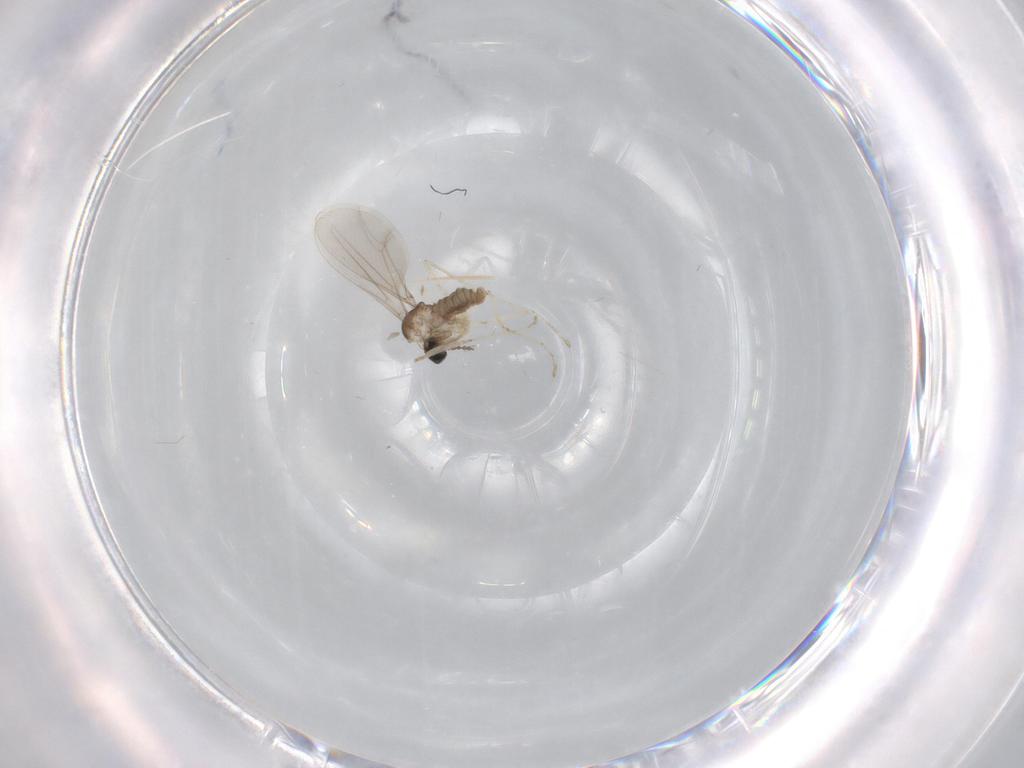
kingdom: Animalia
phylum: Arthropoda
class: Insecta
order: Diptera
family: Cecidomyiidae
